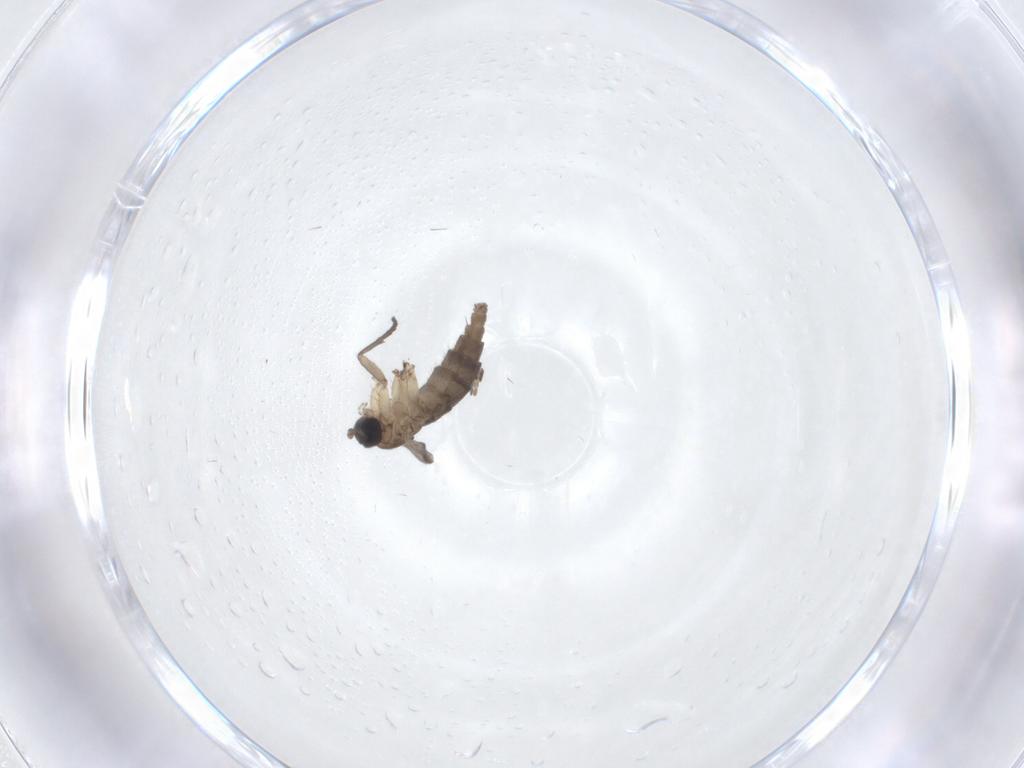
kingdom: Animalia
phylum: Arthropoda
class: Insecta
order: Diptera
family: Sciaridae
